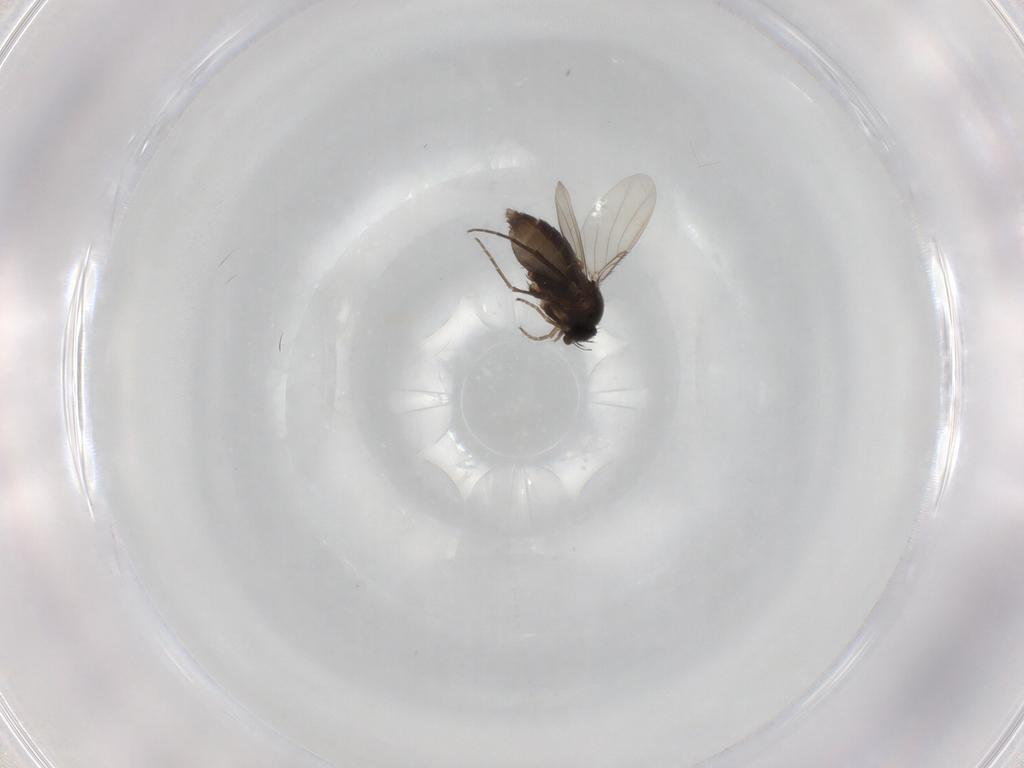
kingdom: Animalia
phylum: Arthropoda
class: Insecta
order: Diptera
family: Phoridae
